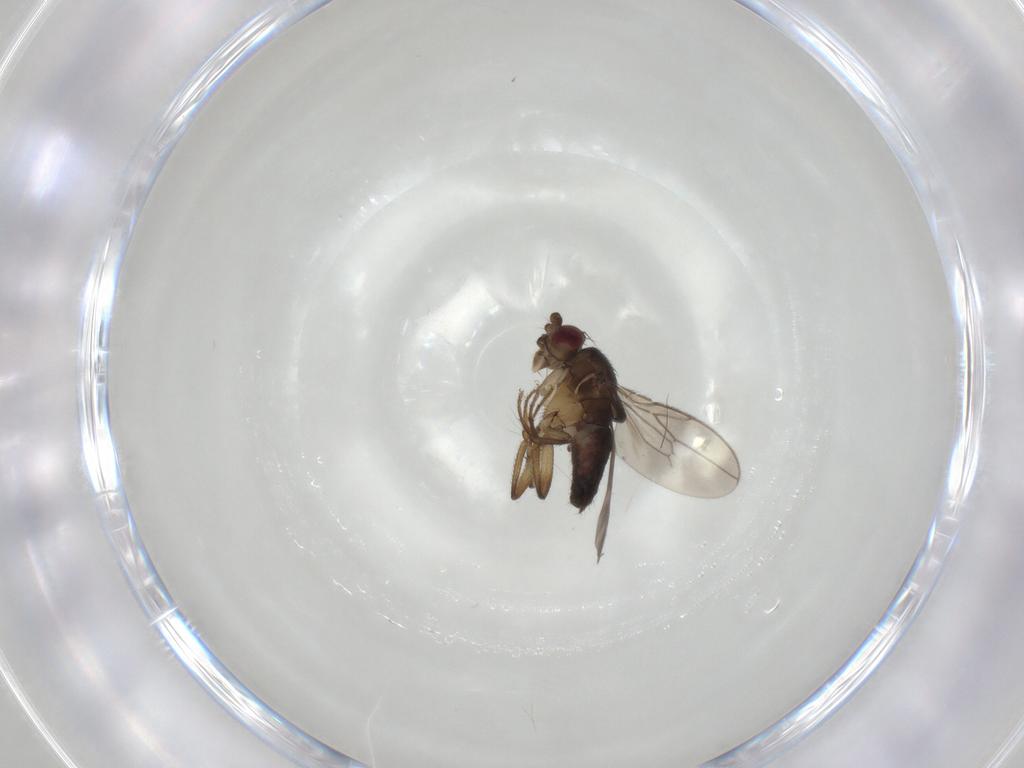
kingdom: Animalia
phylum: Arthropoda
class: Insecta
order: Diptera
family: Sphaeroceridae
